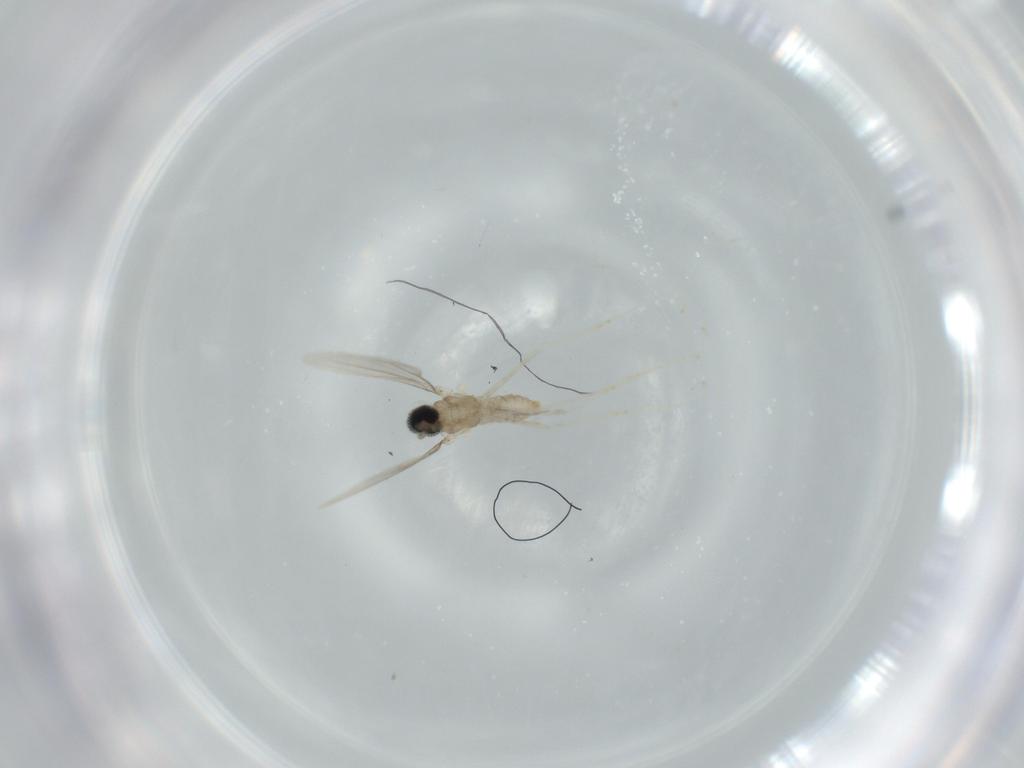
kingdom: Animalia
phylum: Arthropoda
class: Insecta
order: Diptera
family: Cecidomyiidae
